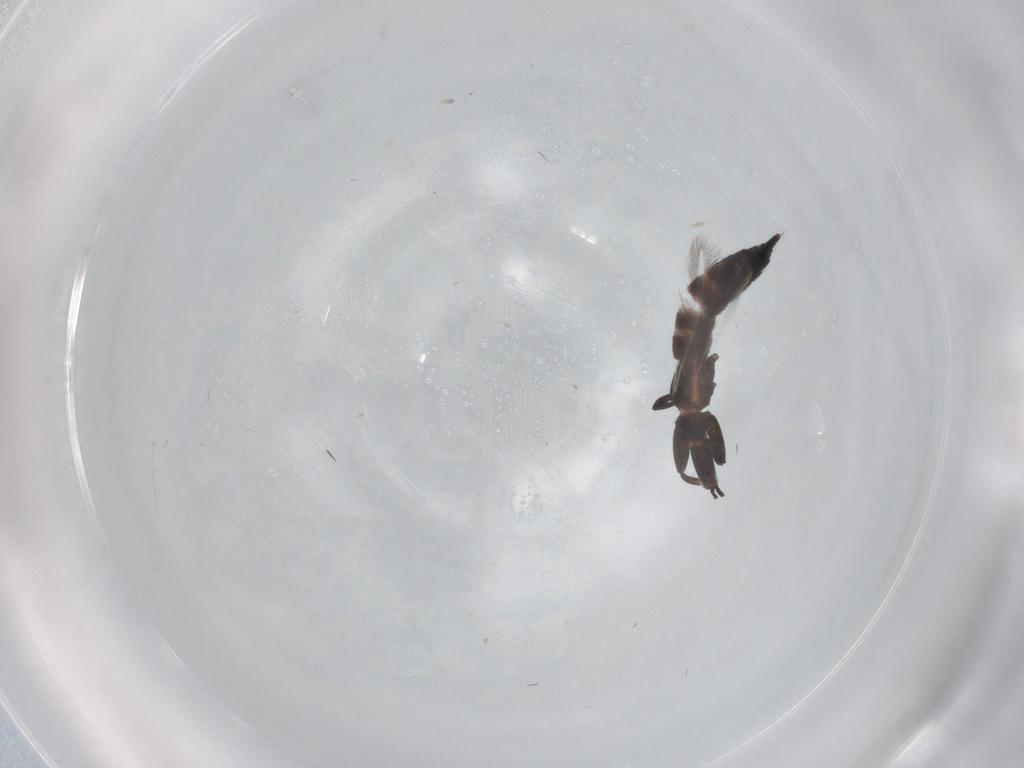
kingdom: Animalia
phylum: Arthropoda
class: Insecta
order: Thysanoptera
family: Phlaeothripidae
